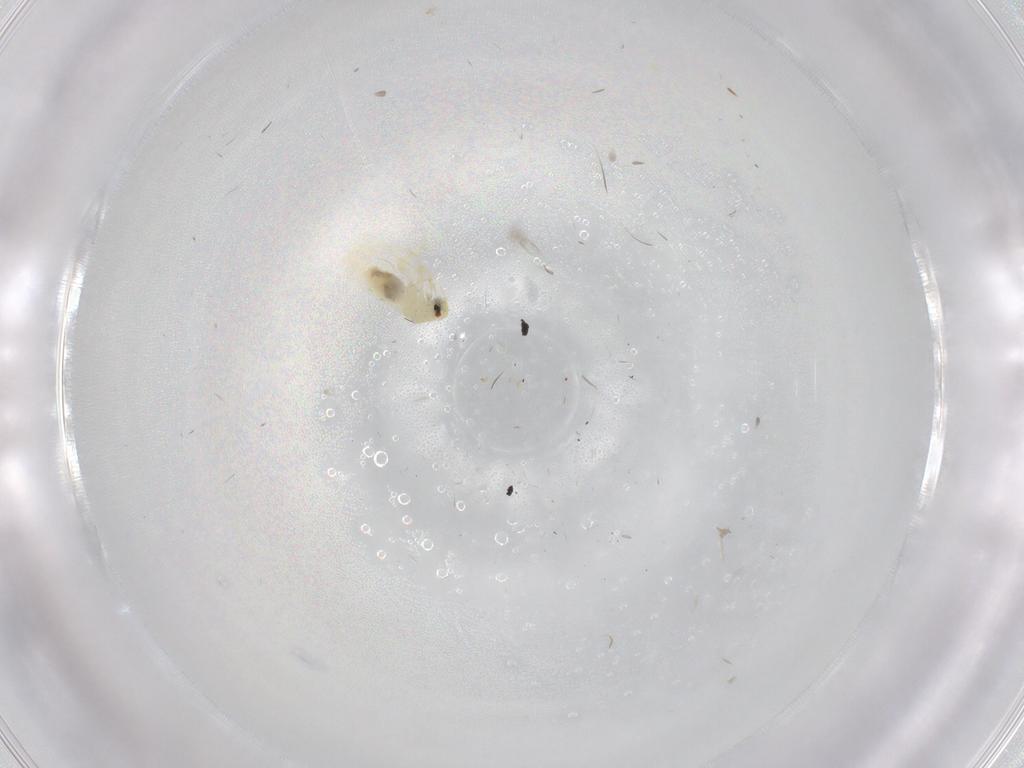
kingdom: Animalia
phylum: Arthropoda
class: Insecta
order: Hemiptera
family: Aleyrodidae
